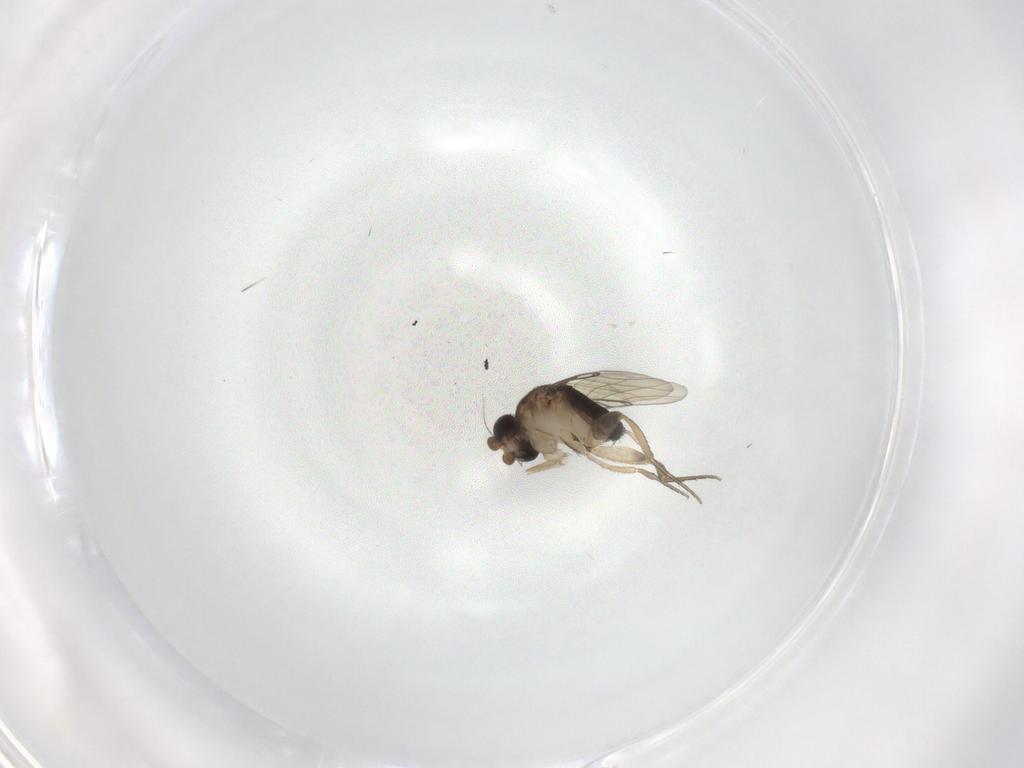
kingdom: Animalia
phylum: Arthropoda
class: Insecta
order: Diptera
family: Phoridae
